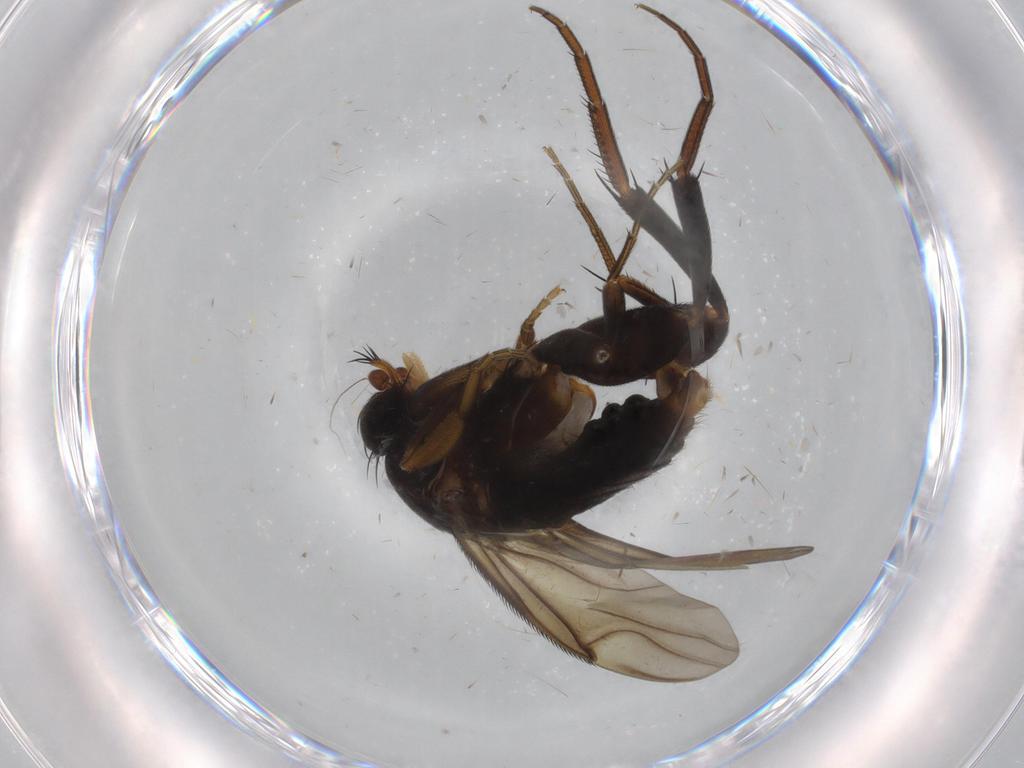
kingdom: Animalia
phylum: Arthropoda
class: Insecta
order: Diptera
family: Phoridae
